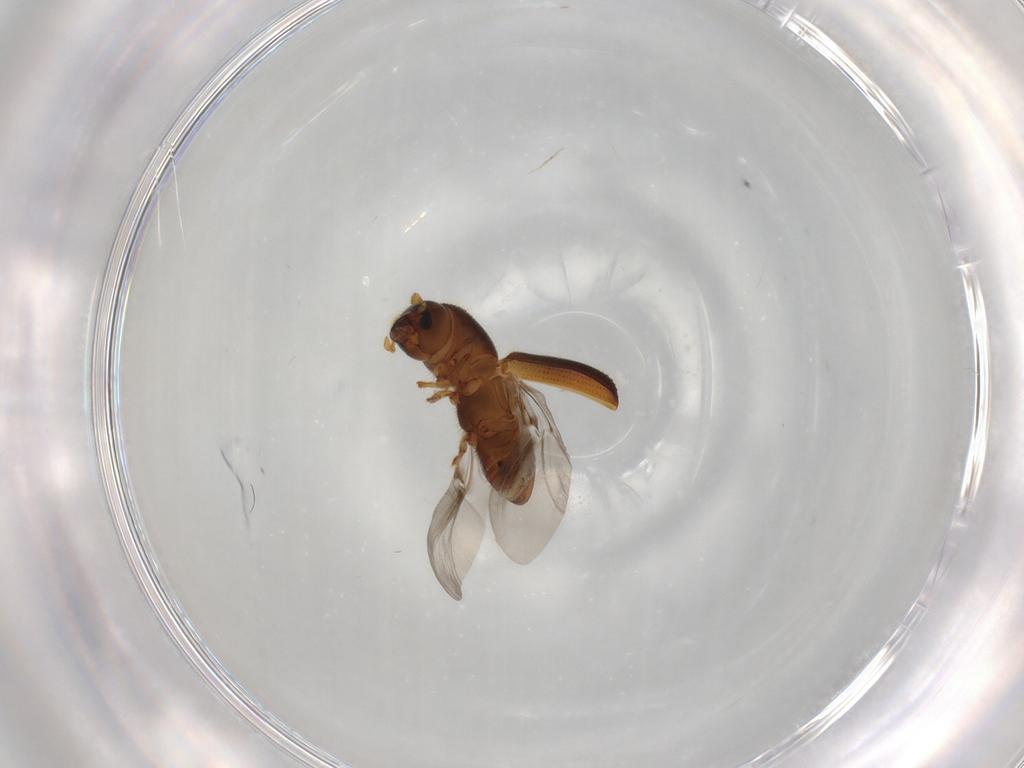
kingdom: Animalia
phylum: Arthropoda
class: Insecta
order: Coleoptera
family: Curculionidae
